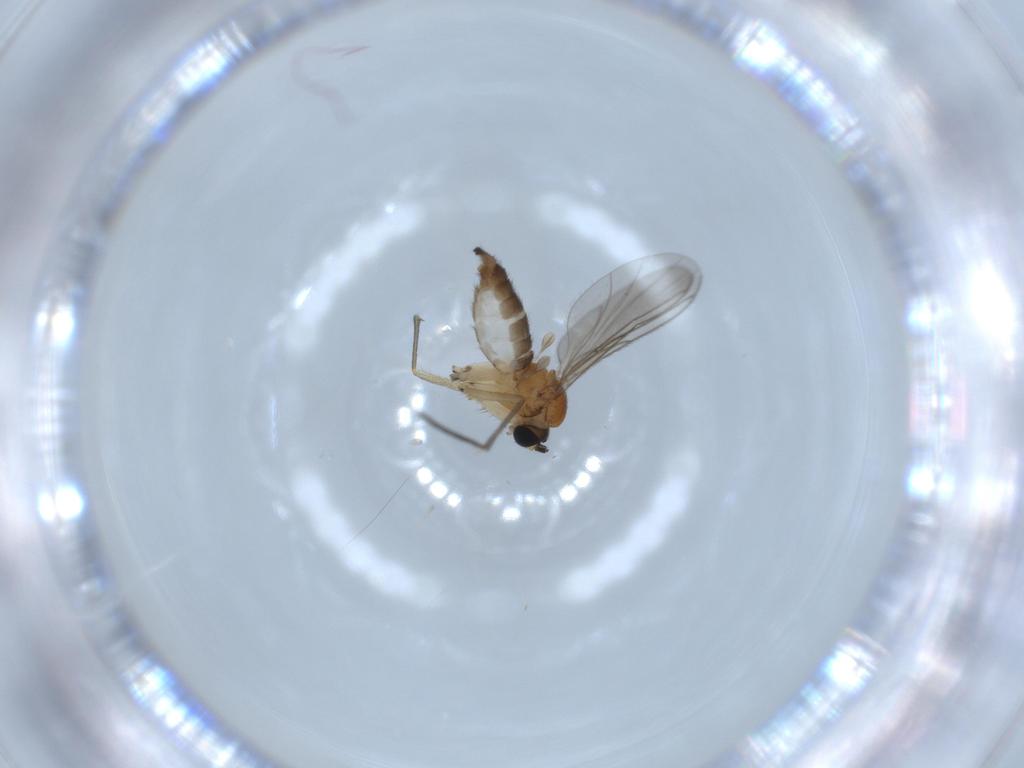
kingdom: Animalia
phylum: Arthropoda
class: Insecta
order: Diptera
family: Sciaridae
